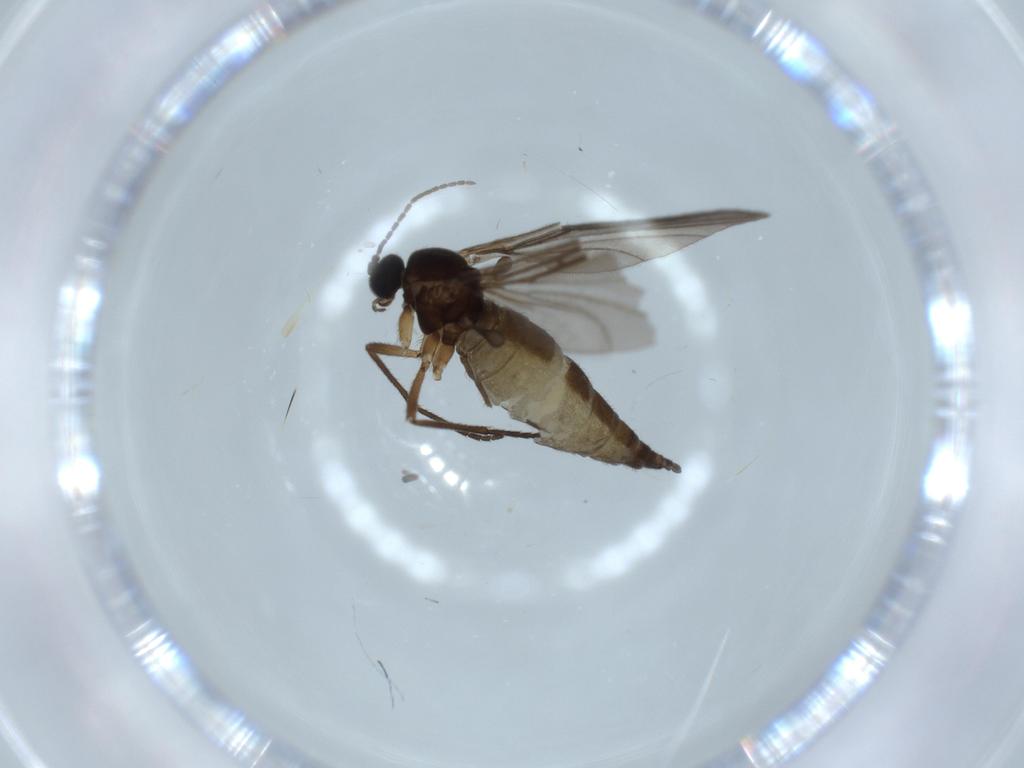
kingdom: Animalia
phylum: Arthropoda
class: Insecta
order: Diptera
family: Sciaridae
